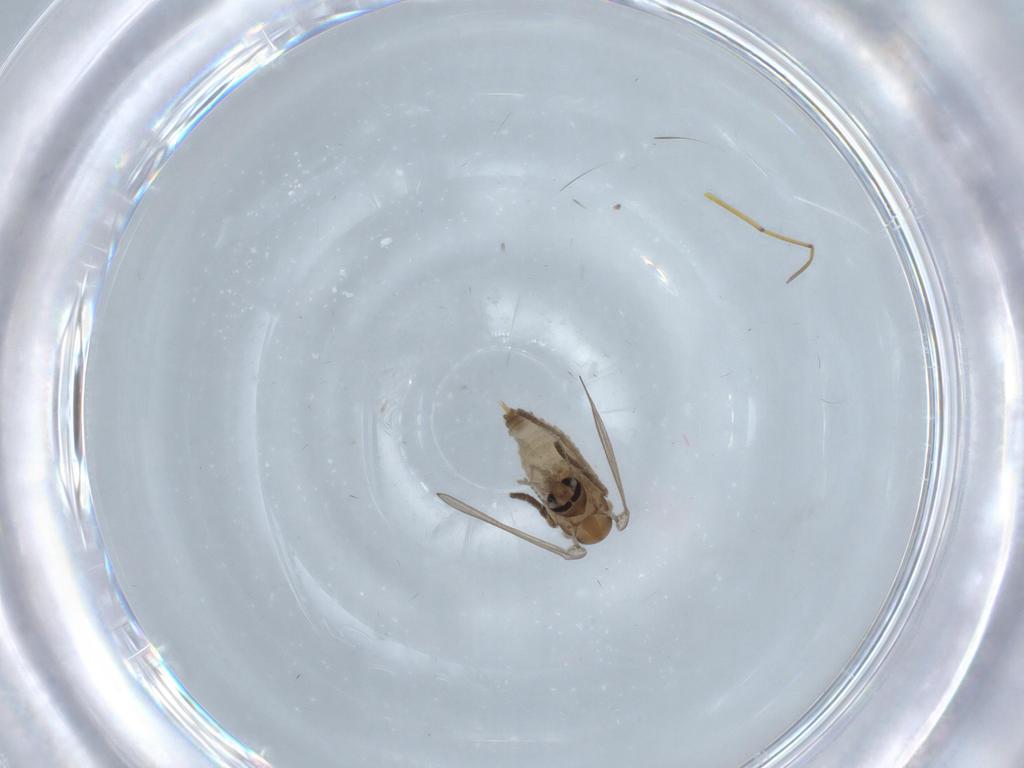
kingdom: Animalia
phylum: Arthropoda
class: Insecta
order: Diptera
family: Psychodidae
